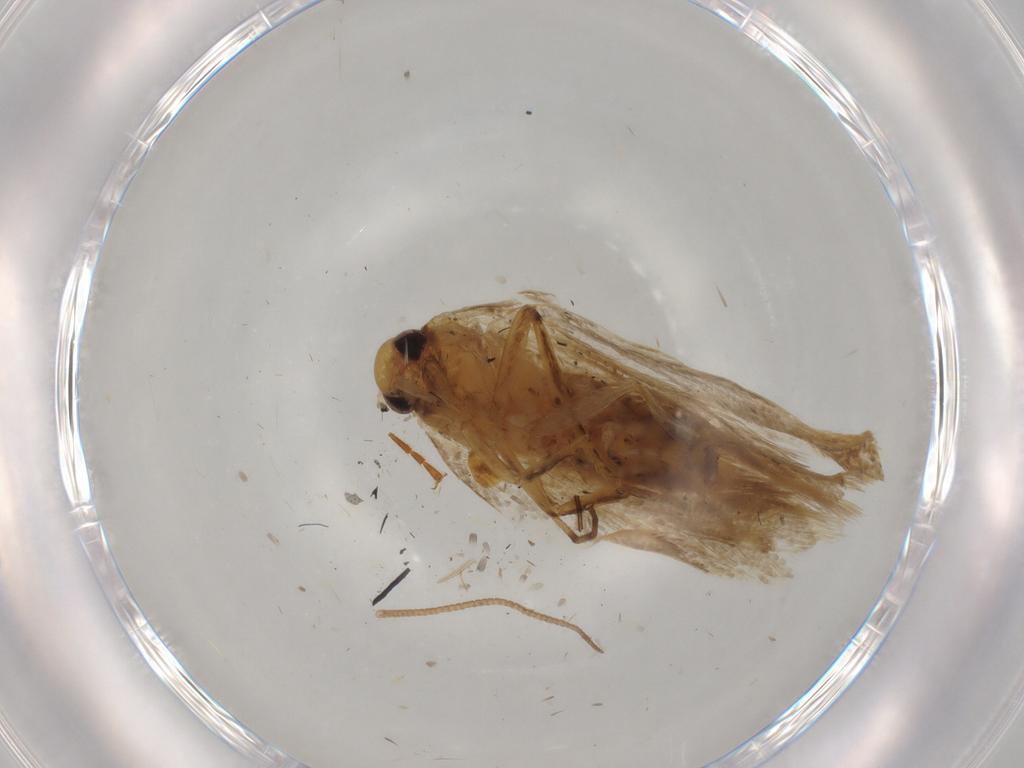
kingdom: Animalia
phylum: Arthropoda
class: Insecta
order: Lepidoptera
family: Depressariidae
